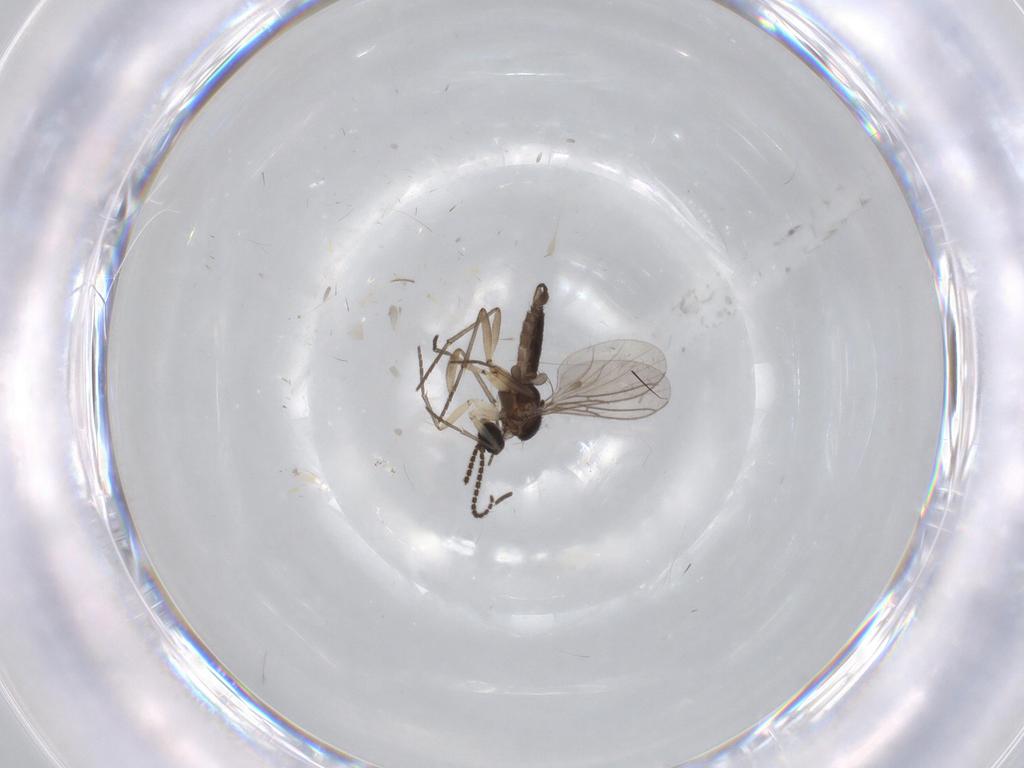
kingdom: Animalia
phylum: Arthropoda
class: Insecta
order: Diptera
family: Sciaridae
